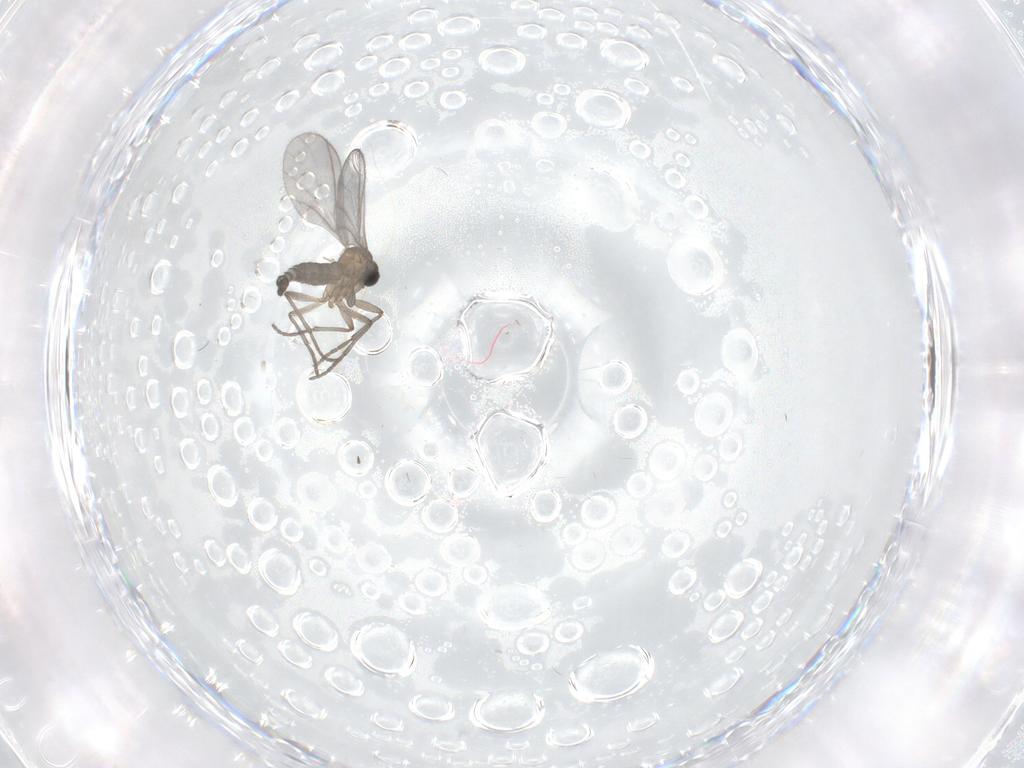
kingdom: Animalia
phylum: Arthropoda
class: Insecta
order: Diptera
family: Sciaridae
